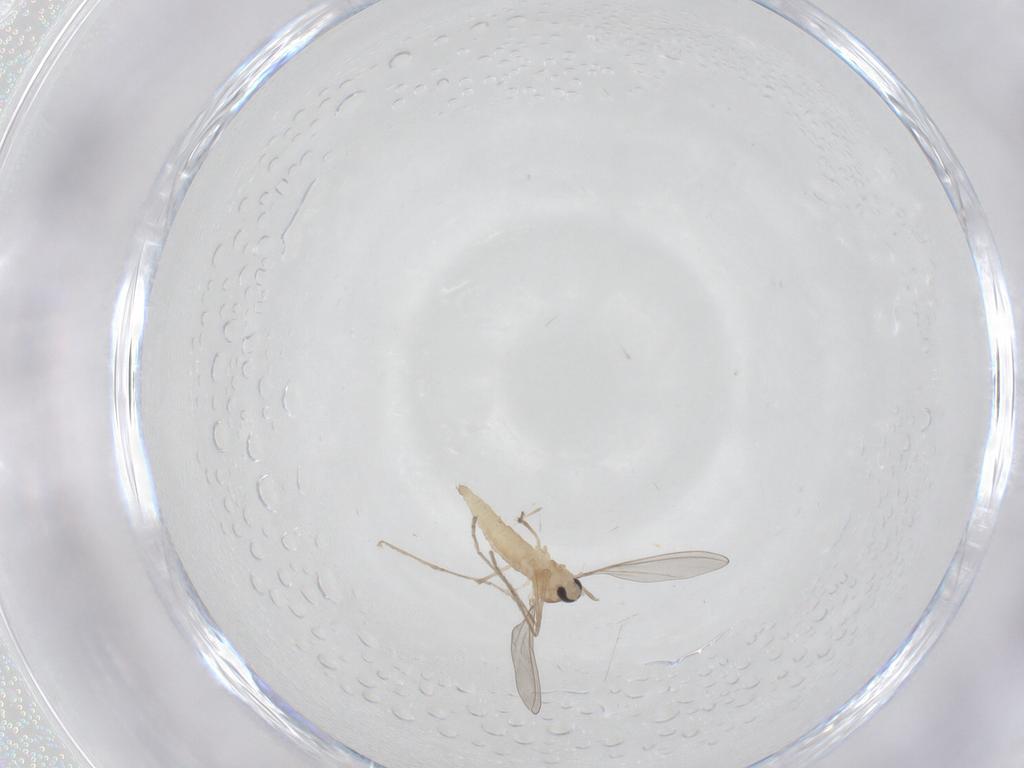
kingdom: Animalia
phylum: Arthropoda
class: Insecta
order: Diptera
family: Cecidomyiidae
